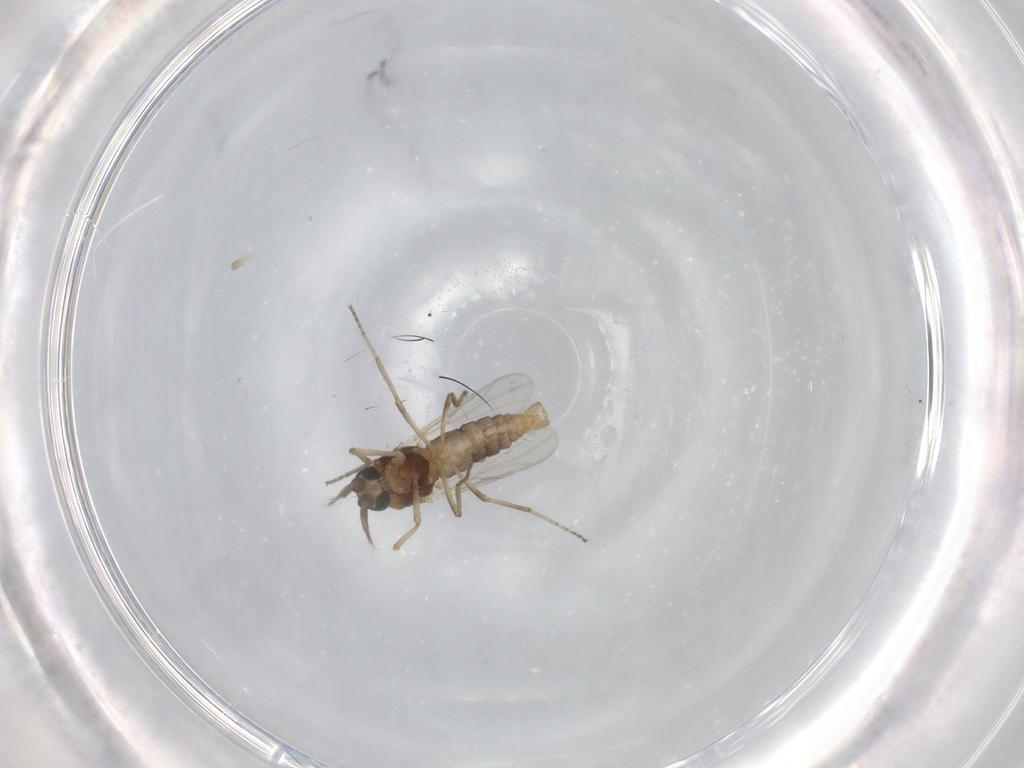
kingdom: Animalia
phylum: Arthropoda
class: Insecta
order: Diptera
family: Ceratopogonidae
